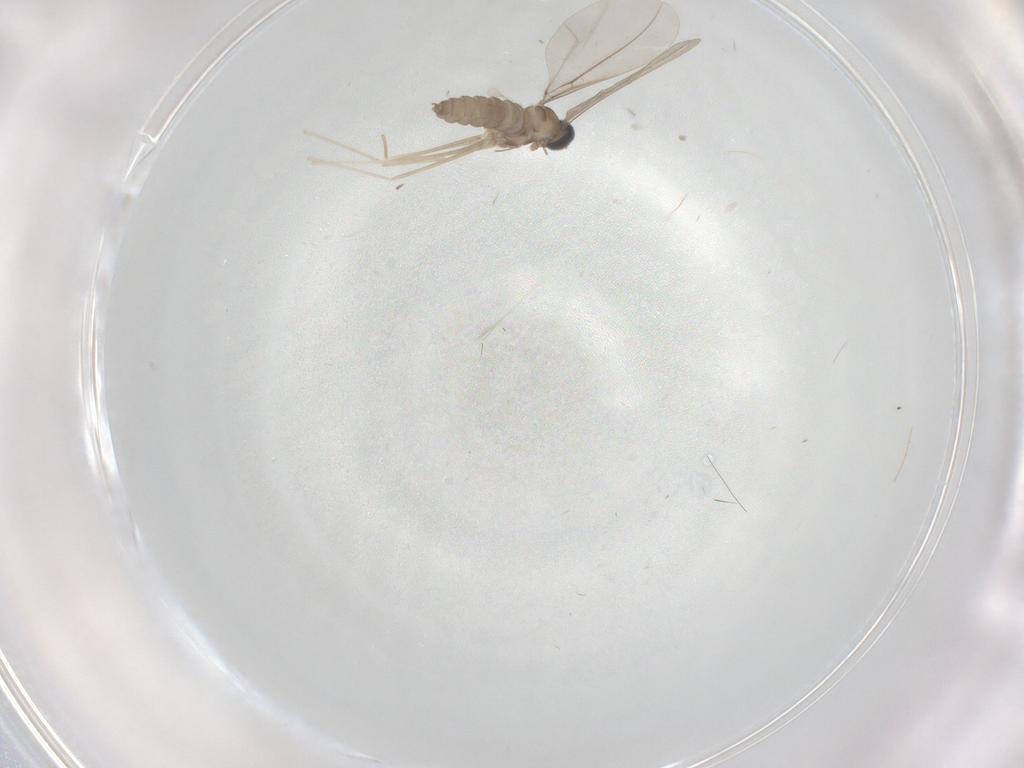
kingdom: Animalia
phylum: Arthropoda
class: Insecta
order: Diptera
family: Cecidomyiidae
